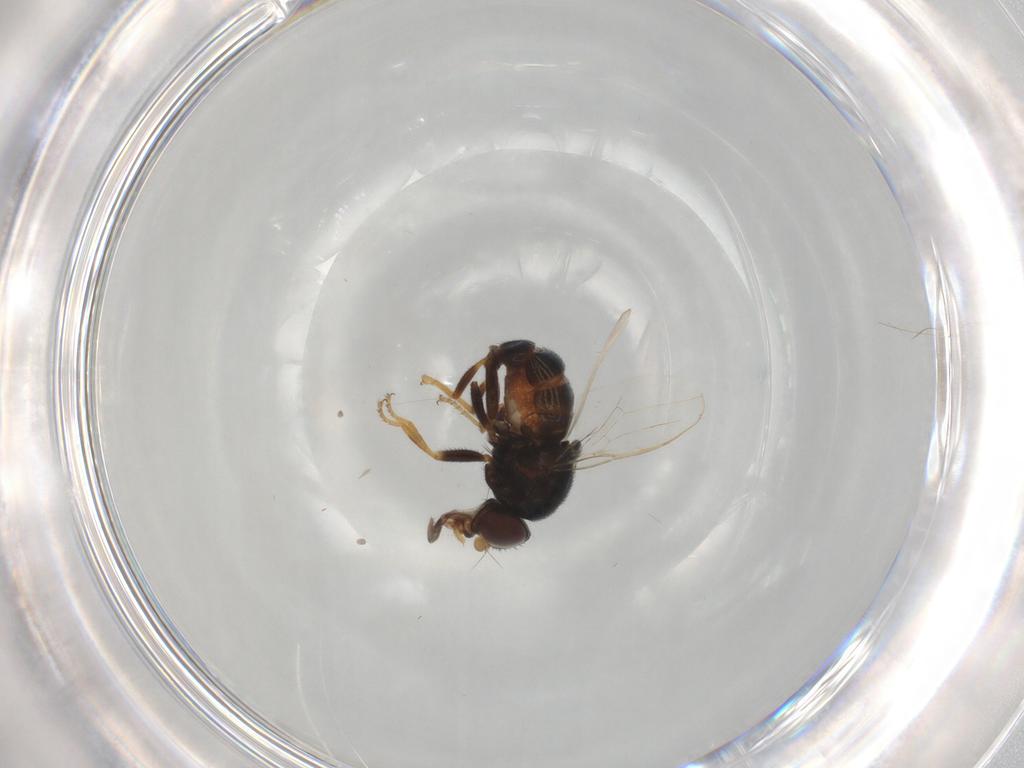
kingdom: Animalia
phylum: Arthropoda
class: Insecta
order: Diptera
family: Chloropidae
